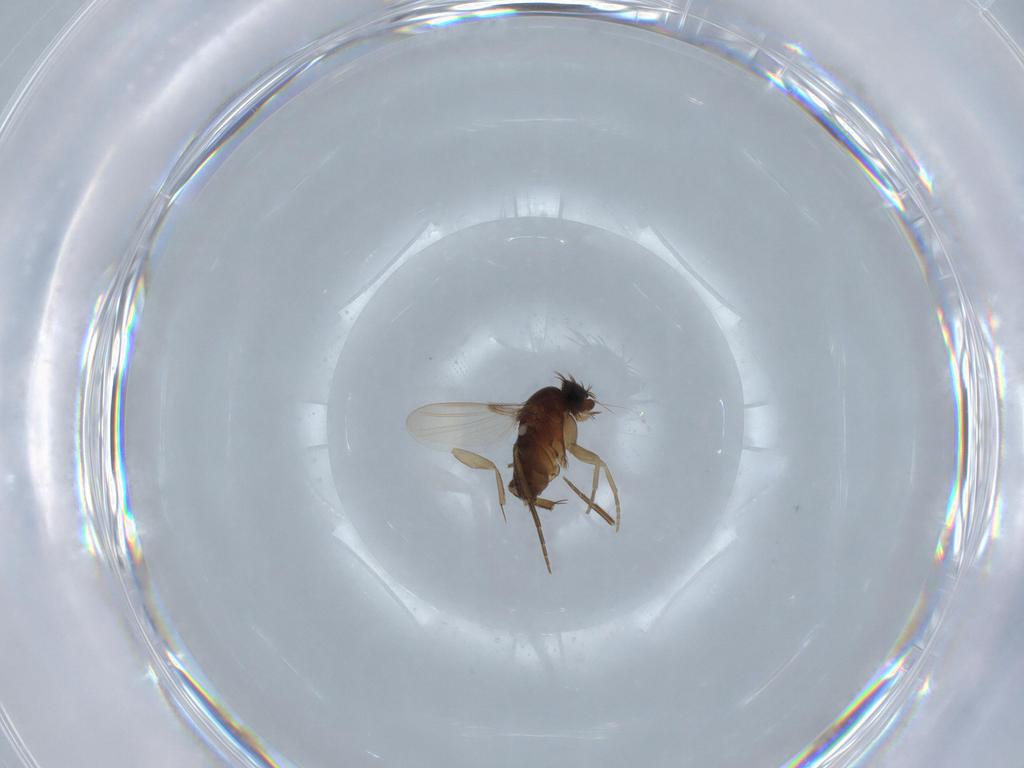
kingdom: Animalia
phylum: Arthropoda
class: Insecta
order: Diptera
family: Phoridae
